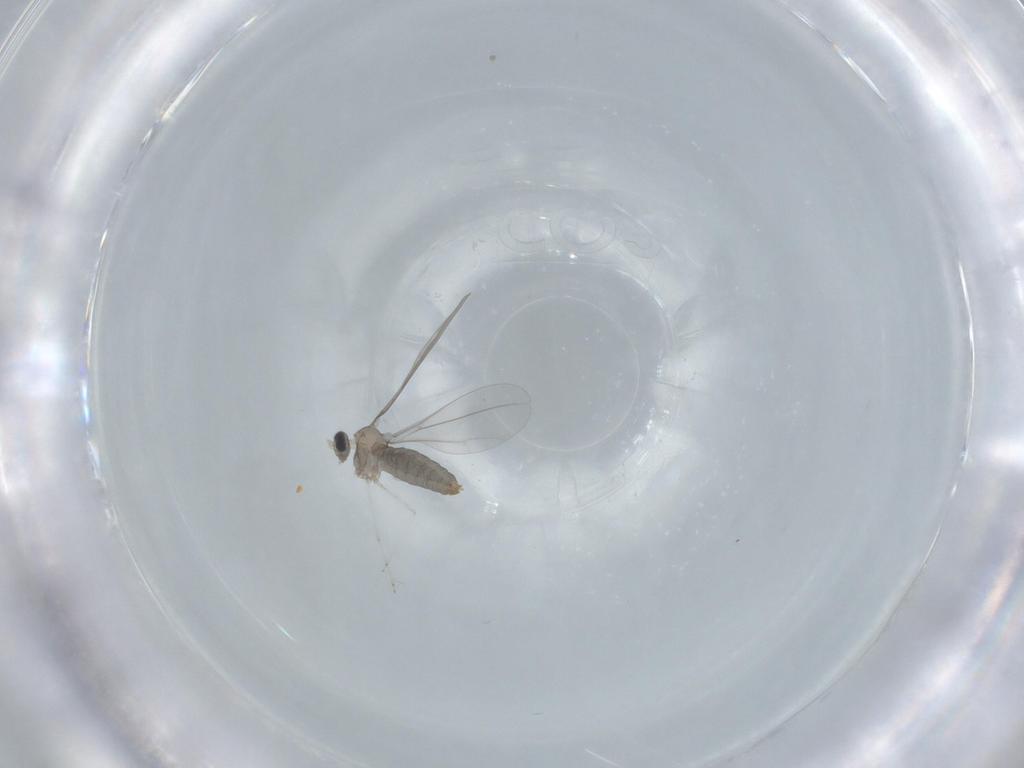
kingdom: Animalia
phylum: Arthropoda
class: Insecta
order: Diptera
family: Cecidomyiidae
